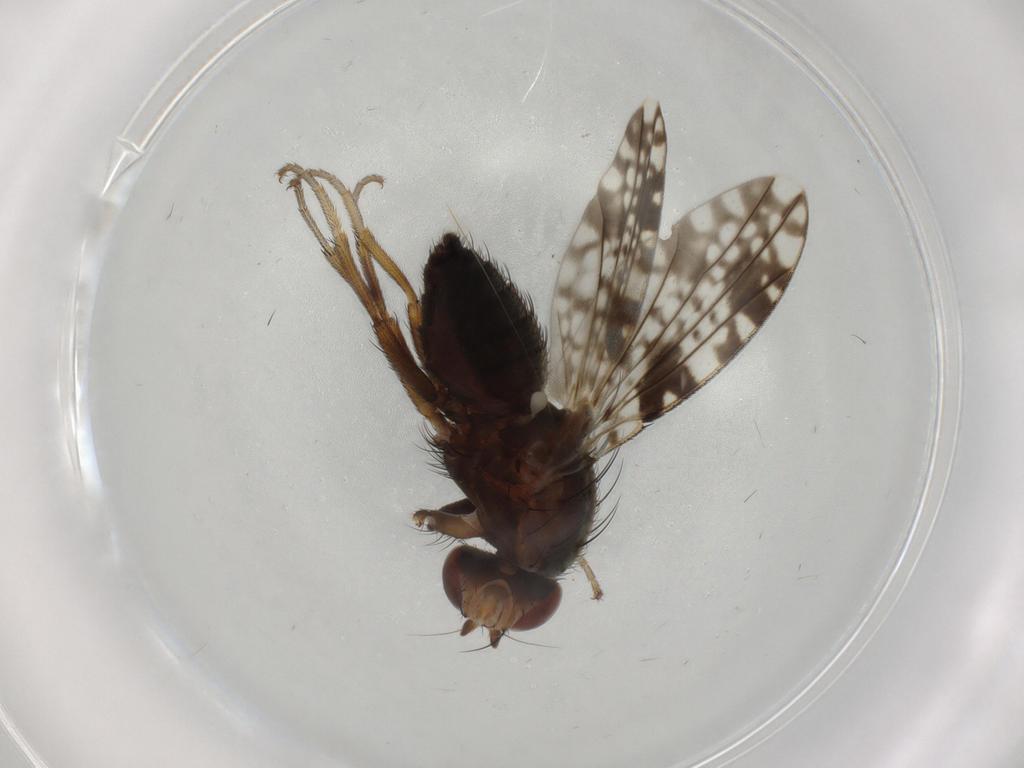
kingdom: Animalia
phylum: Arthropoda
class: Insecta
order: Diptera
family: Tephritidae
